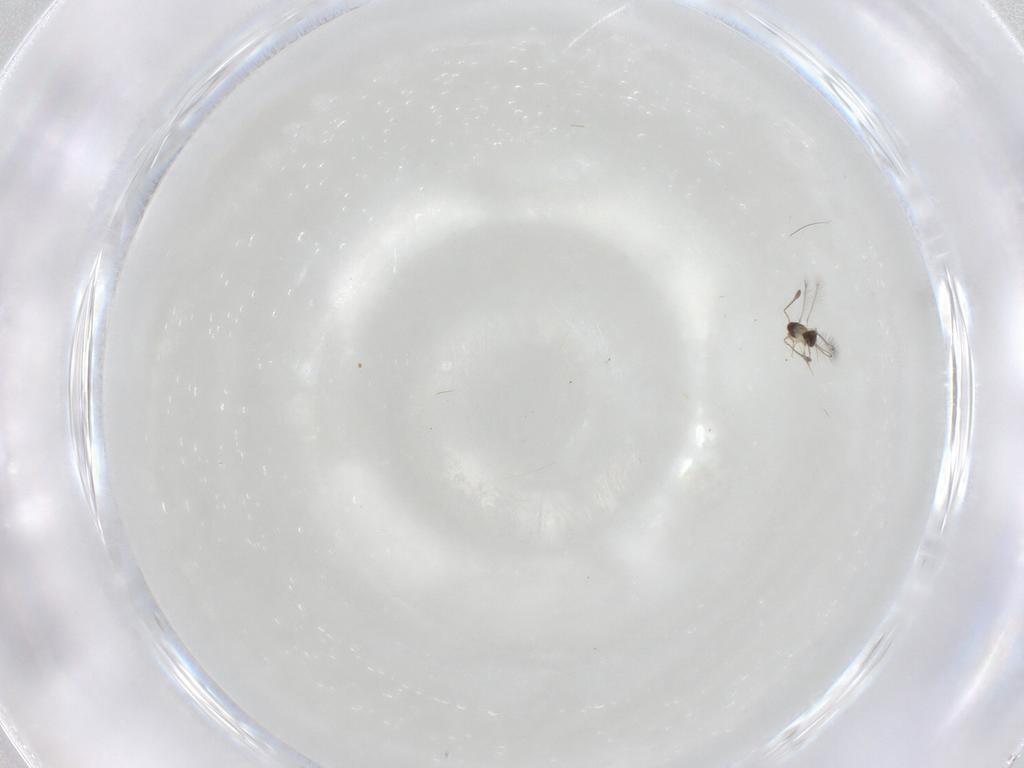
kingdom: Animalia
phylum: Arthropoda
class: Insecta
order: Hymenoptera
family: Mymaridae
